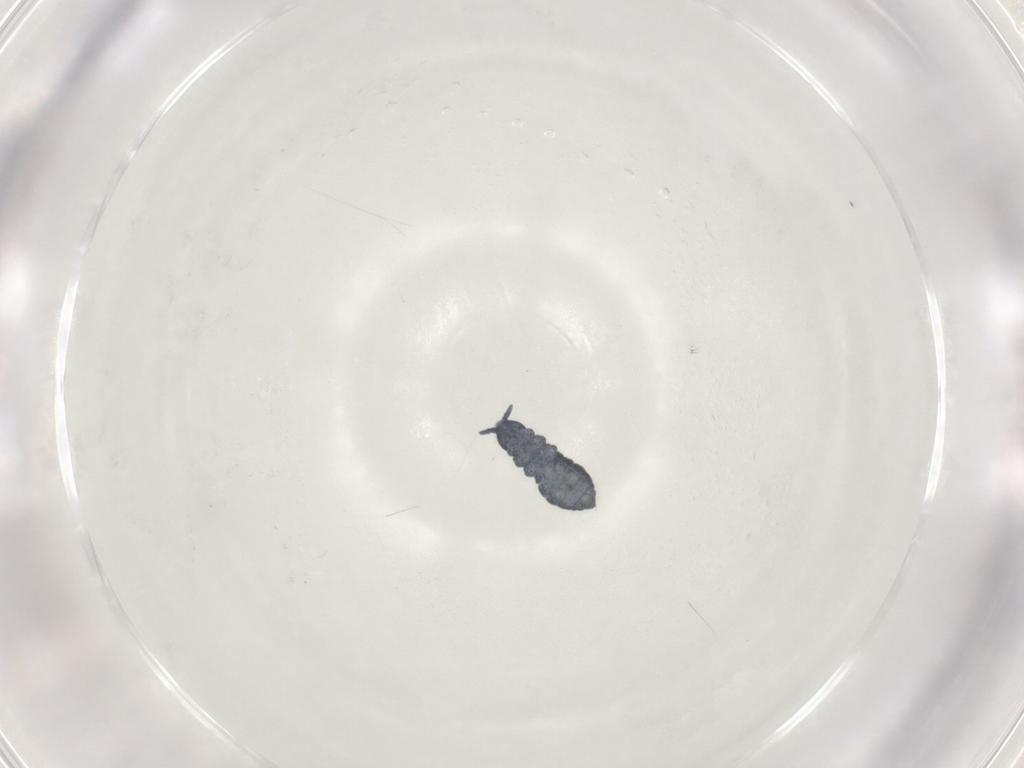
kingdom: Animalia
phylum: Arthropoda
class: Collembola
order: Poduromorpha
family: Hypogastruridae
